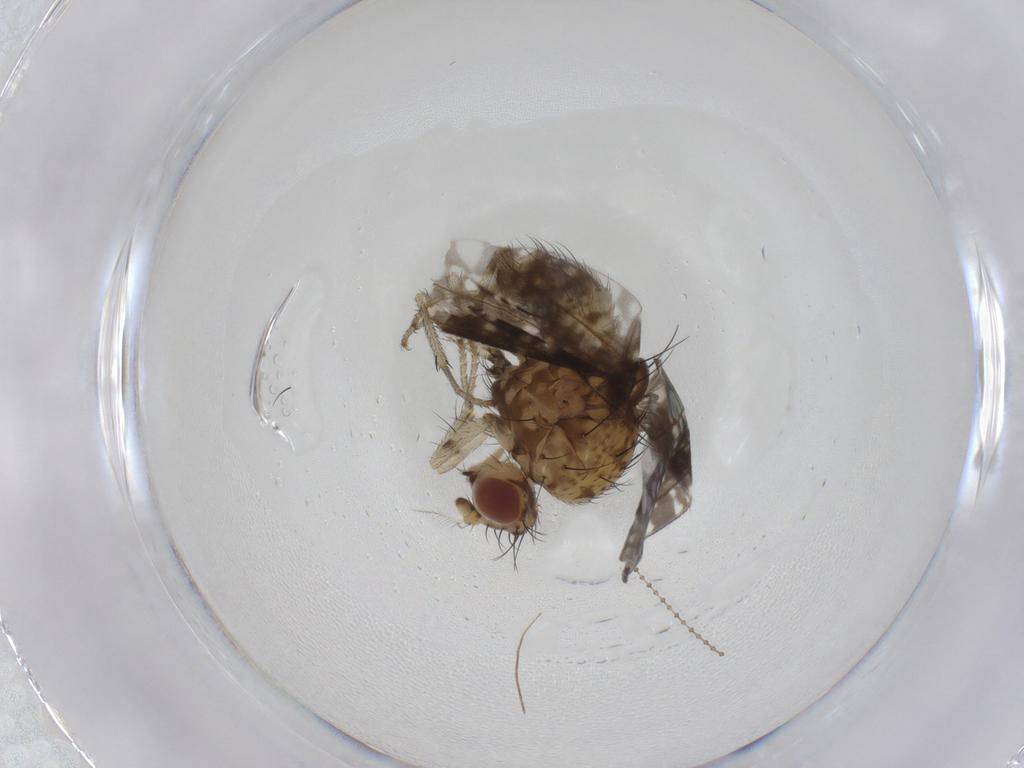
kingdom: Animalia
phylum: Arthropoda
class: Insecta
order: Diptera
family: Lauxaniidae
